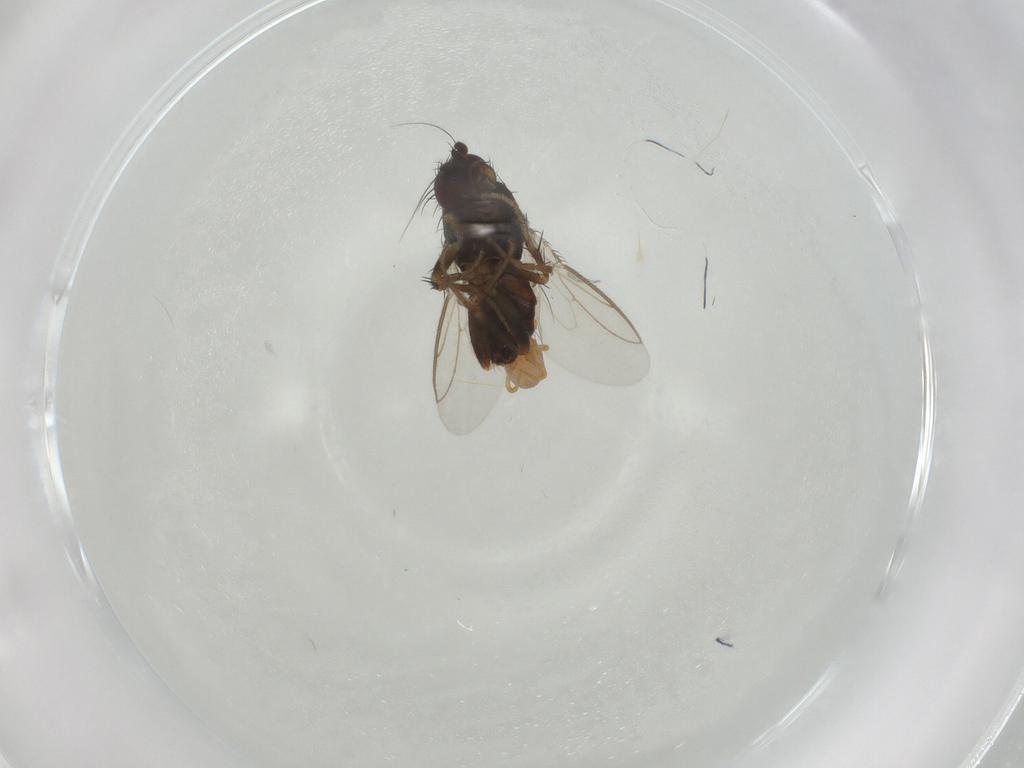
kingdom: Animalia
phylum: Arthropoda
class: Insecta
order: Diptera
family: Sphaeroceridae
